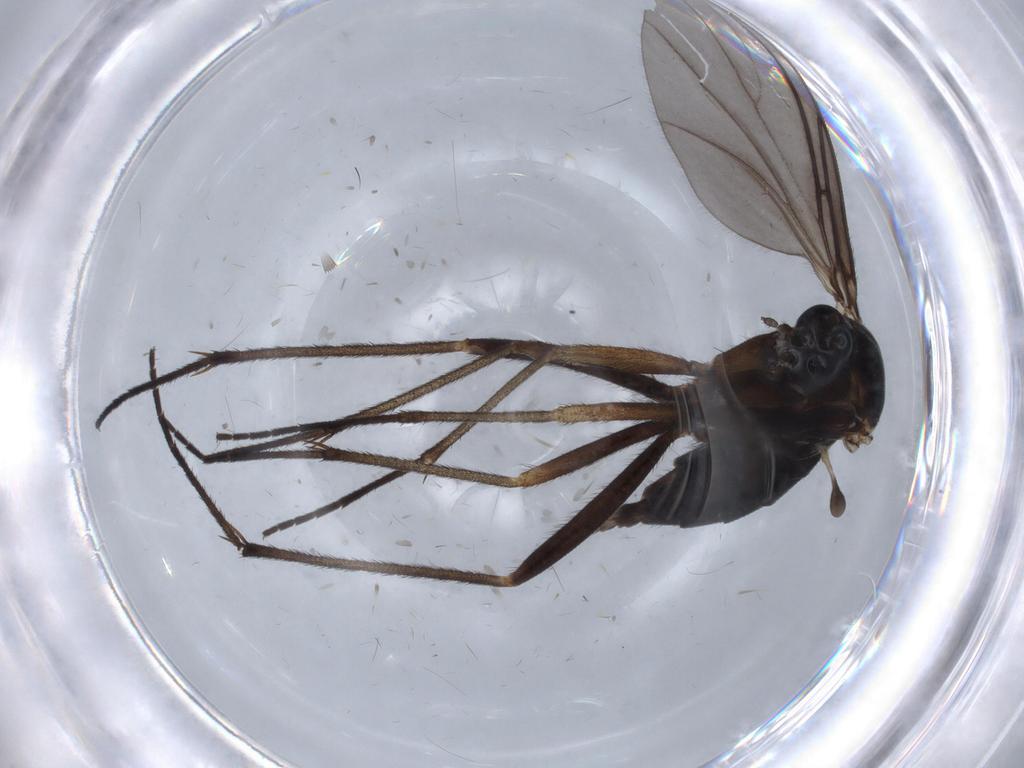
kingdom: Animalia
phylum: Arthropoda
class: Insecta
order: Diptera
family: Sciaridae
